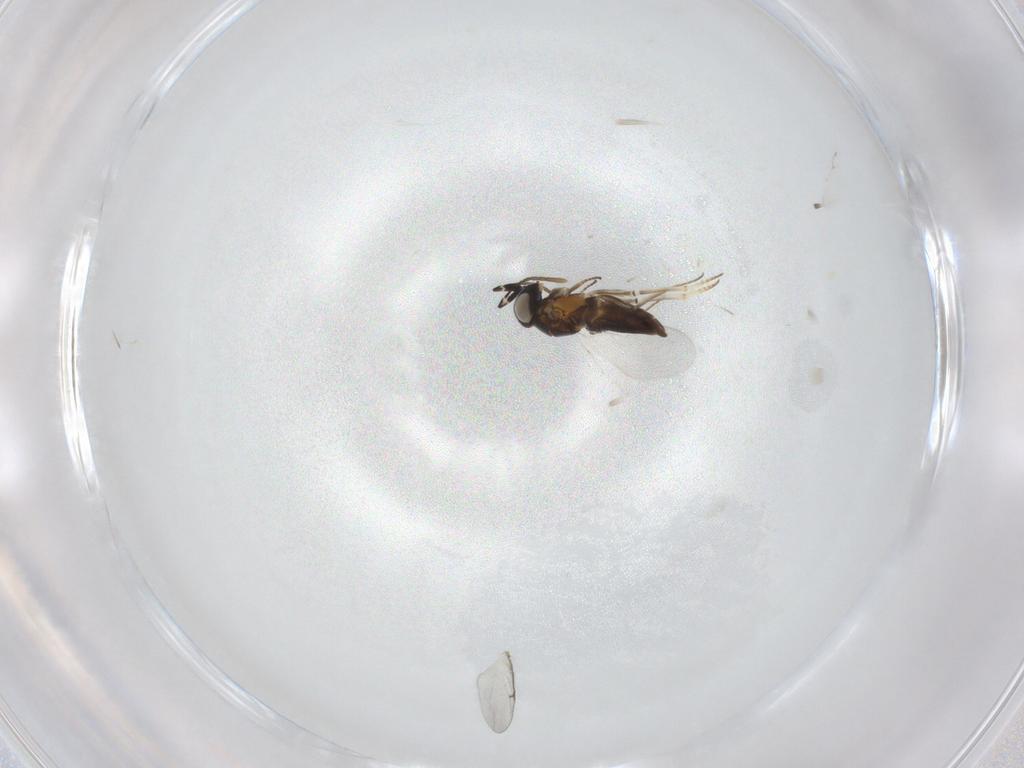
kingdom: Animalia
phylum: Arthropoda
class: Insecta
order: Hymenoptera
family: Encyrtidae
